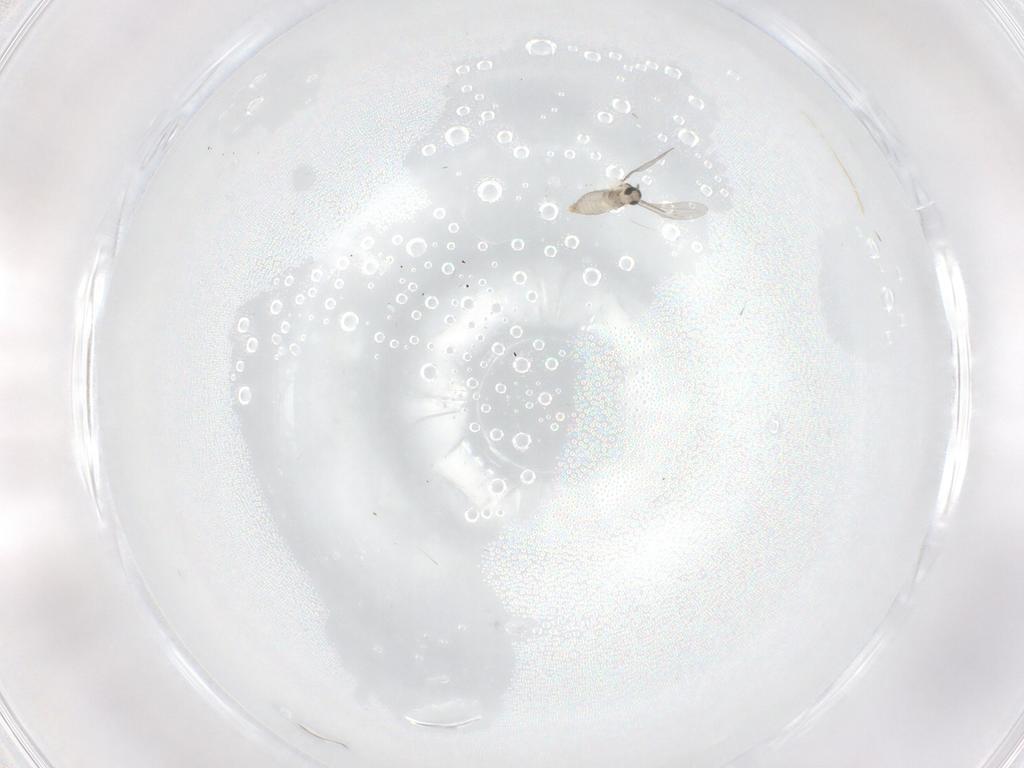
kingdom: Animalia
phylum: Arthropoda
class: Insecta
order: Diptera
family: Cecidomyiidae
